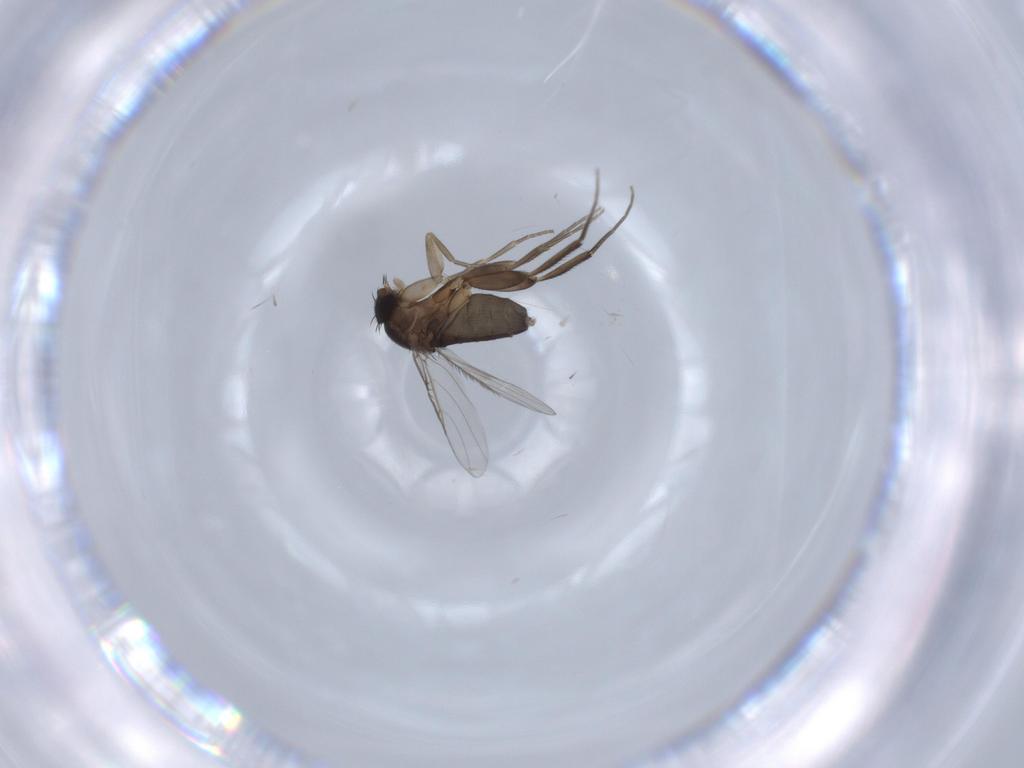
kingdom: Animalia
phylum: Arthropoda
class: Insecta
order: Diptera
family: Phoridae
